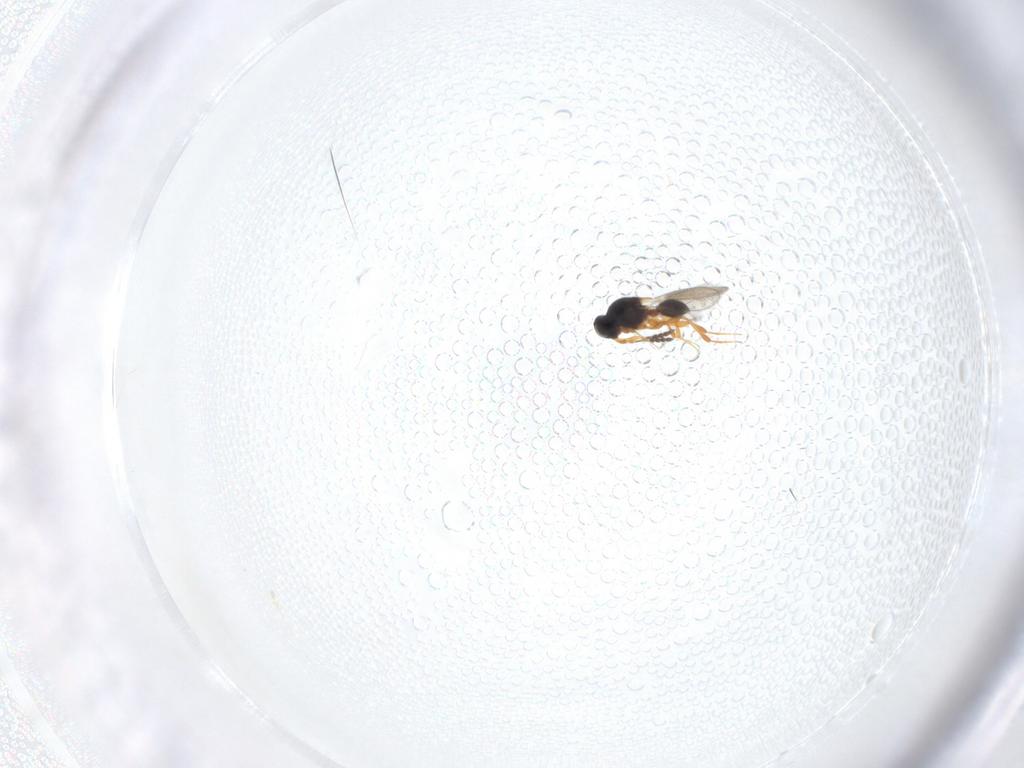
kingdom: Animalia
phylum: Arthropoda
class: Insecta
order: Hymenoptera
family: Platygastridae
